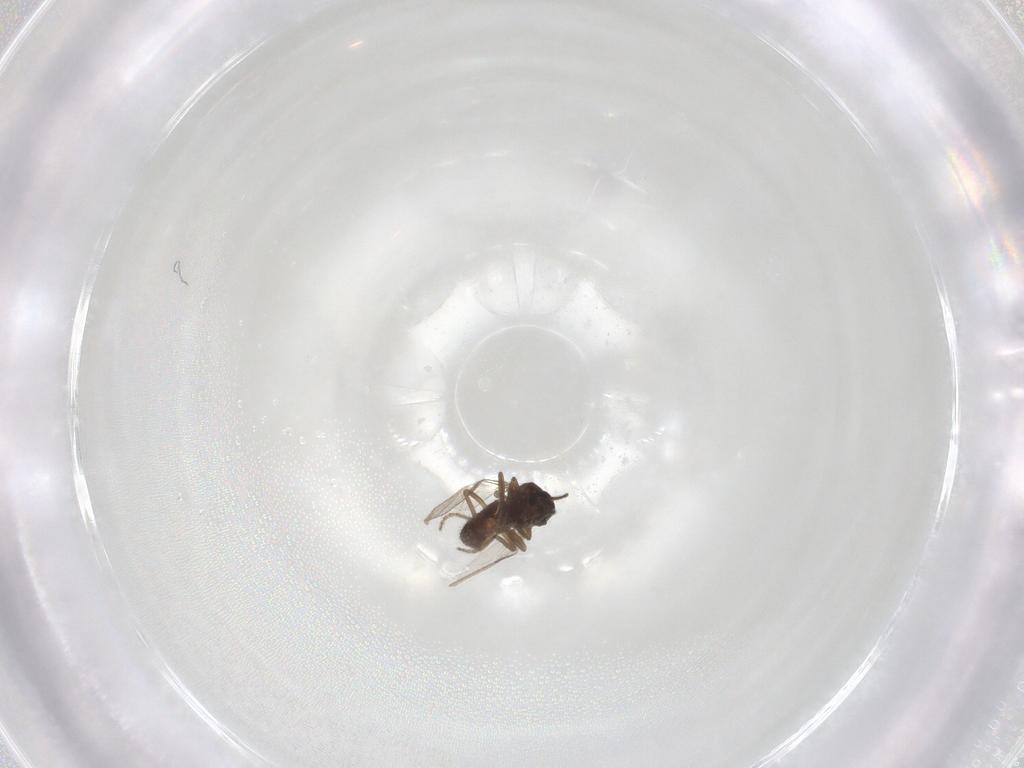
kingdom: Animalia
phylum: Arthropoda
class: Insecta
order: Diptera
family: Ceratopogonidae
